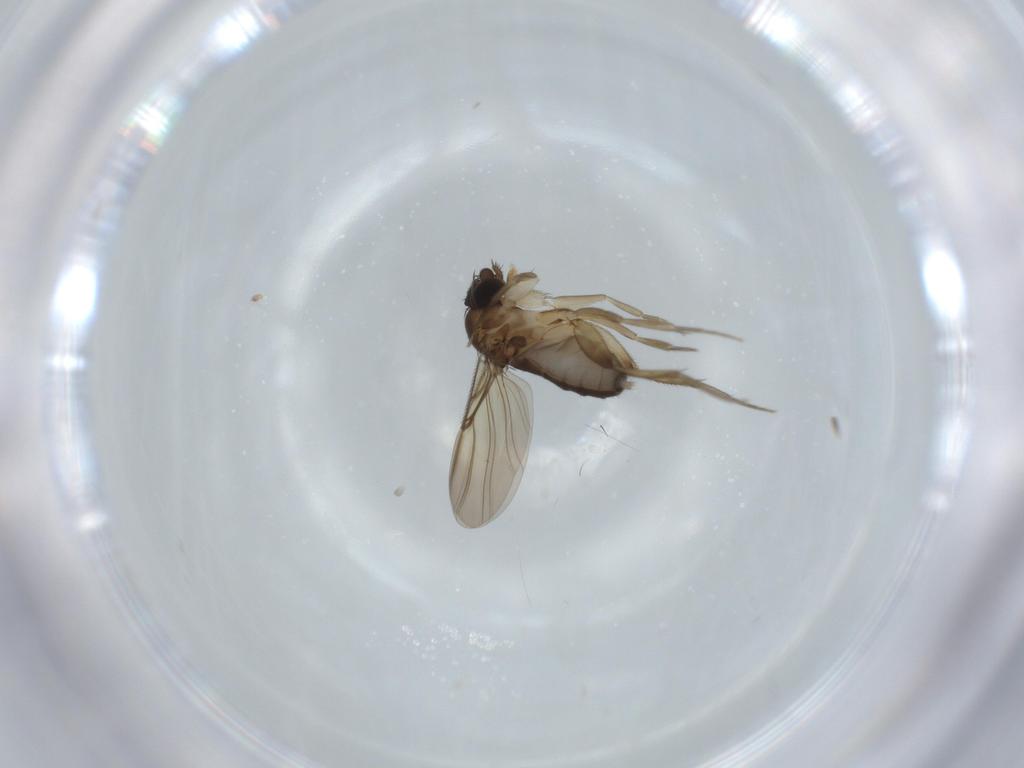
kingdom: Animalia
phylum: Arthropoda
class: Insecta
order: Diptera
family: Phoridae
